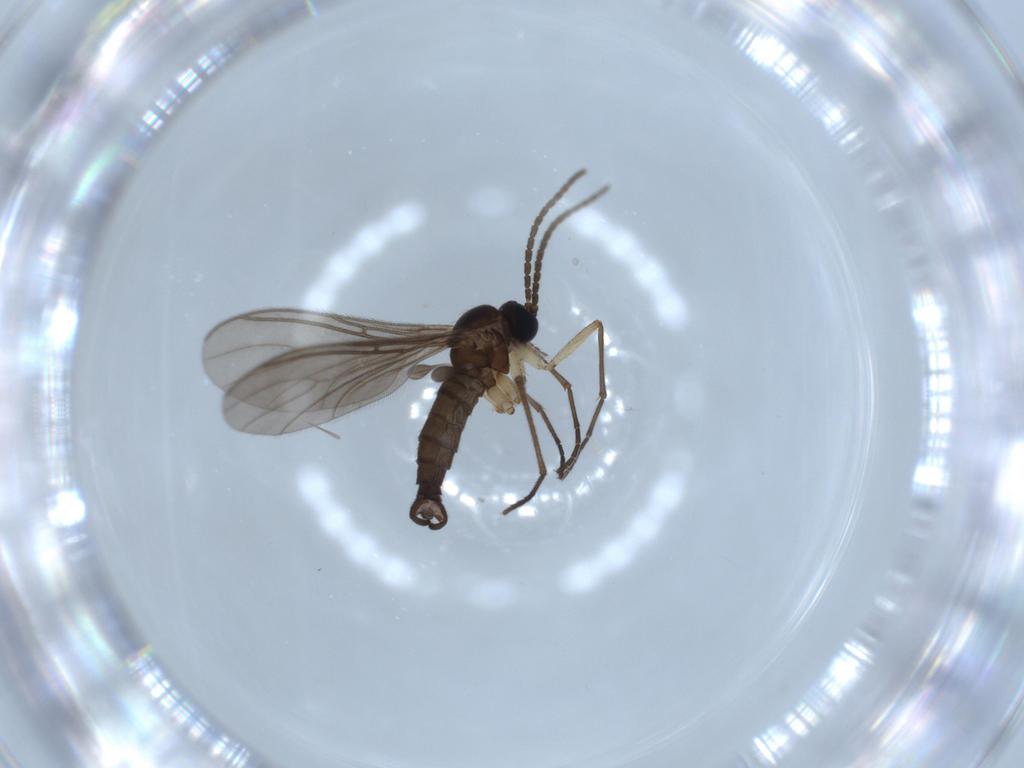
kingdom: Animalia
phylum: Arthropoda
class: Insecta
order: Diptera
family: Sciaridae
